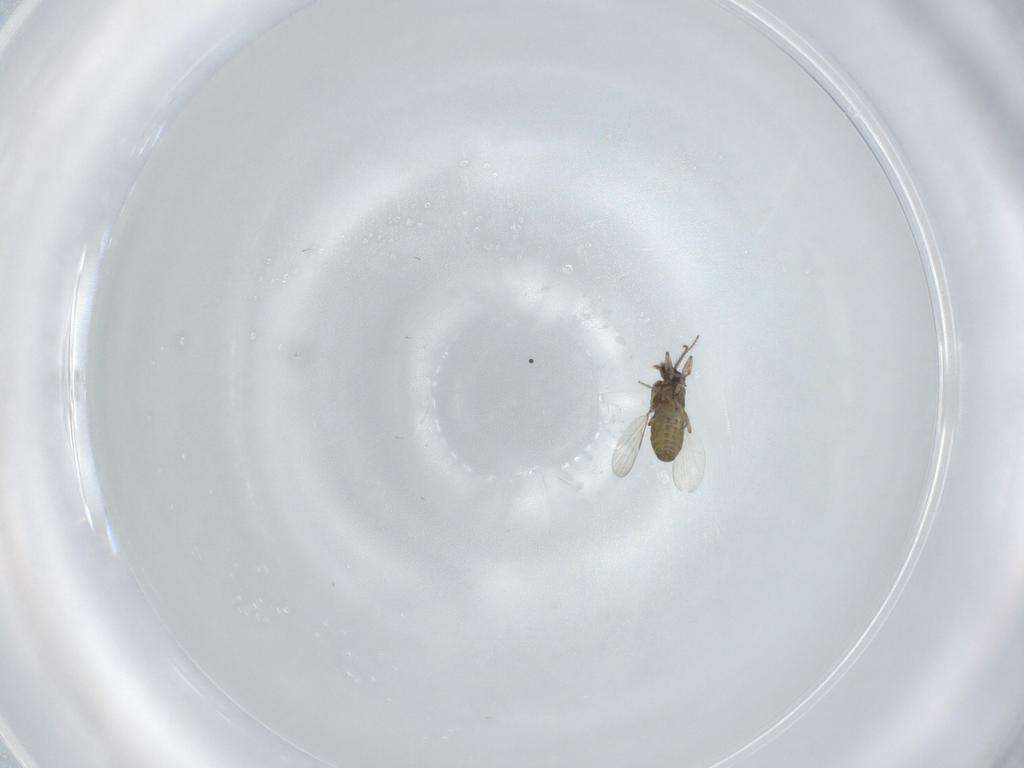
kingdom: Animalia
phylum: Arthropoda
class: Insecta
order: Diptera
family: Ceratopogonidae
